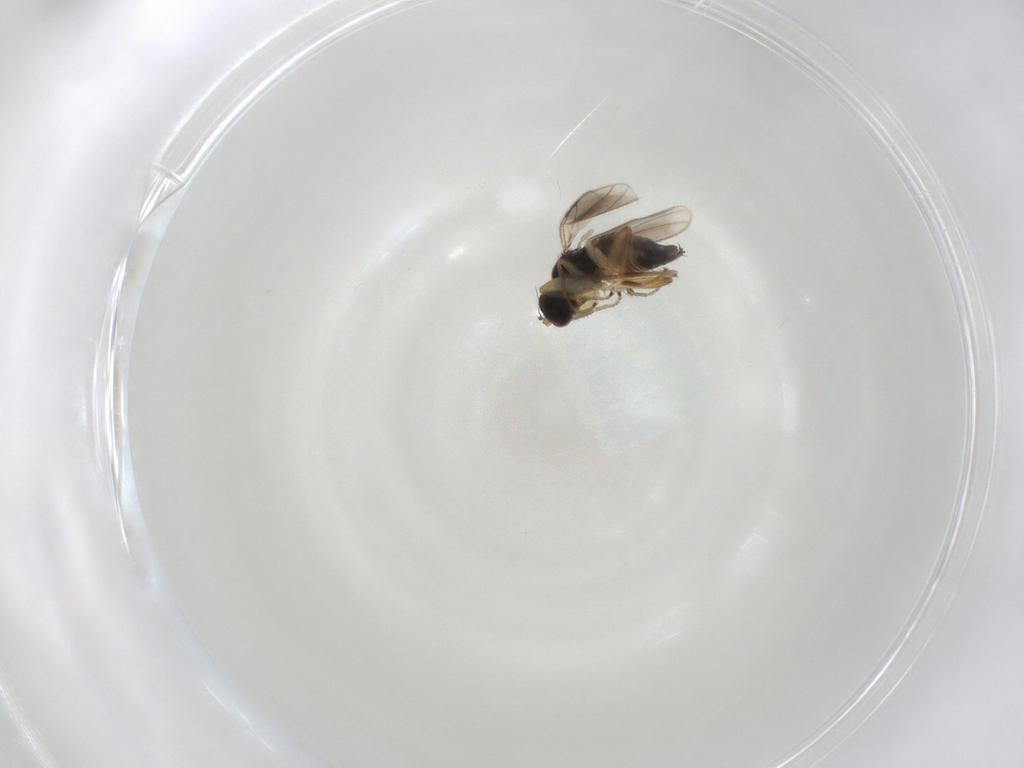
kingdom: Animalia
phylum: Arthropoda
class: Insecta
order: Diptera
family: Hybotidae
